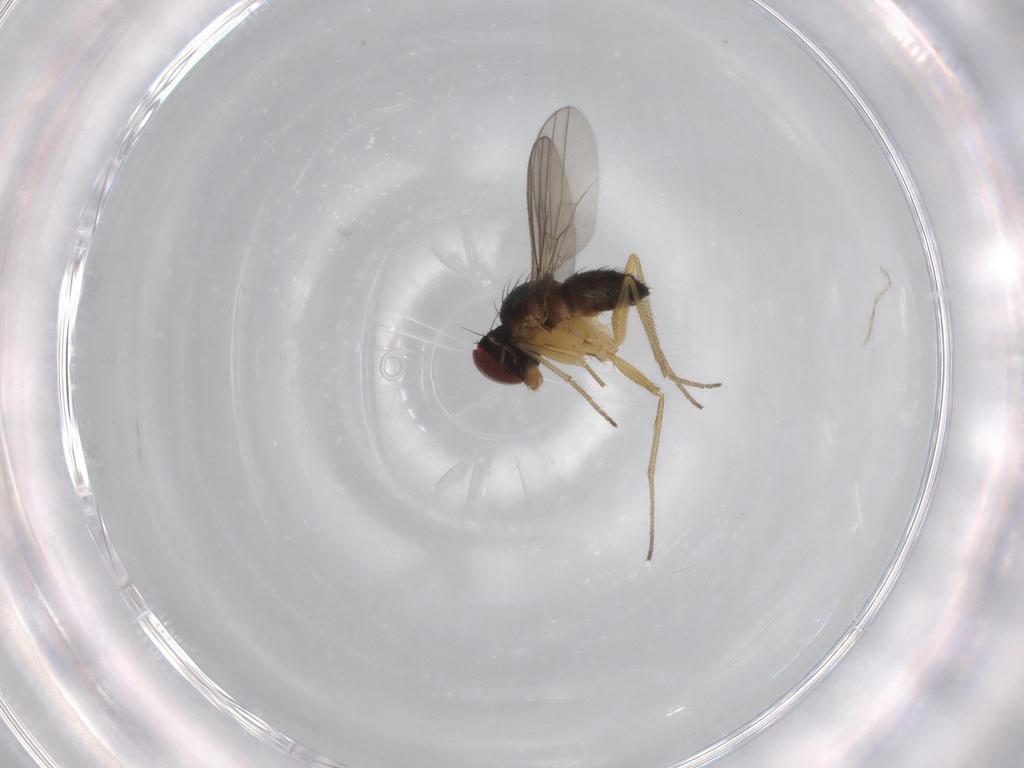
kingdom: Animalia
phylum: Arthropoda
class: Insecta
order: Diptera
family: Dolichopodidae
